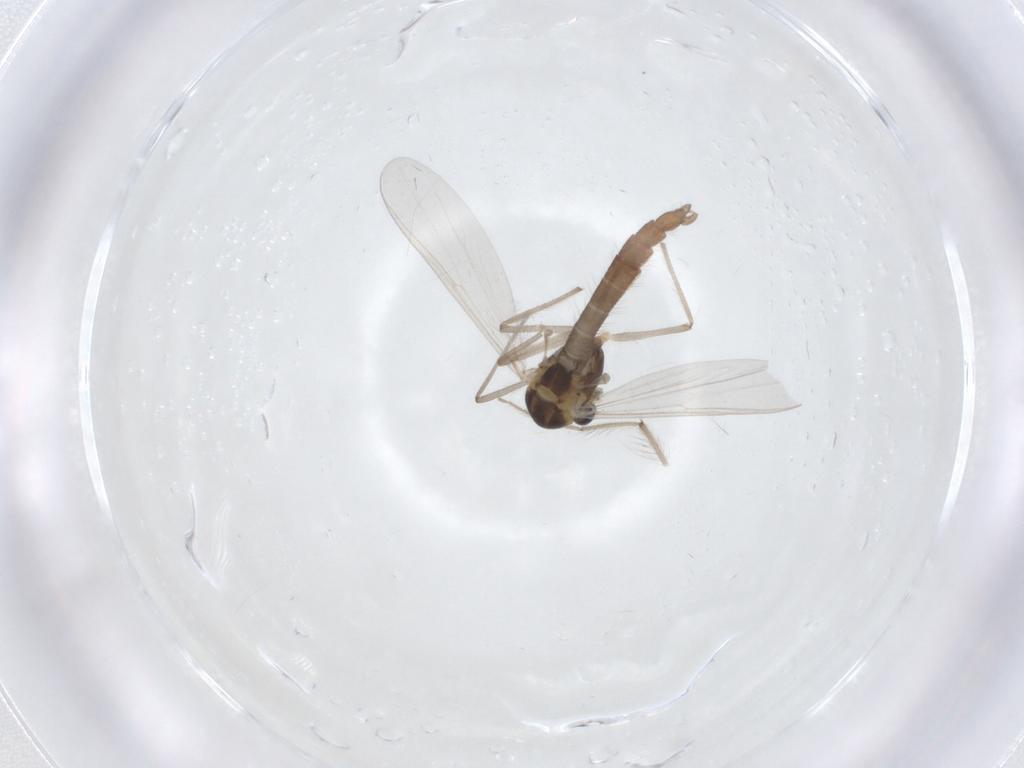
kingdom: Animalia
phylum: Arthropoda
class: Insecta
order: Diptera
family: Chironomidae
